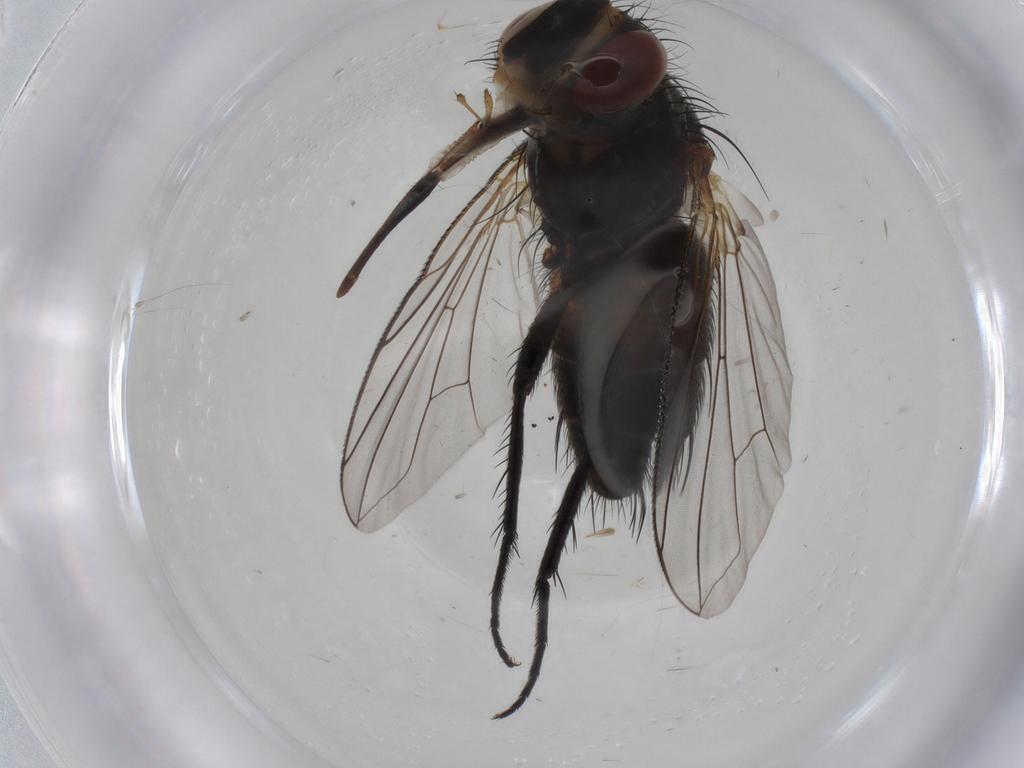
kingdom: Animalia
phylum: Arthropoda
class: Insecta
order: Diptera
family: Tachinidae
